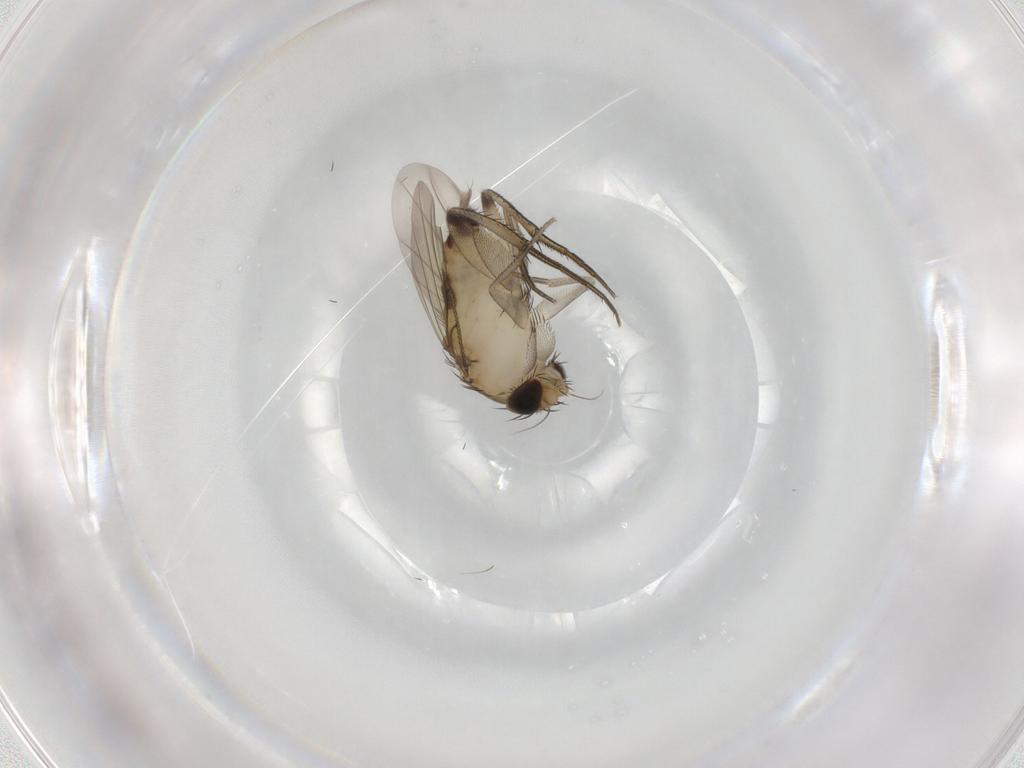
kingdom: Animalia
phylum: Arthropoda
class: Insecta
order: Diptera
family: Phoridae
